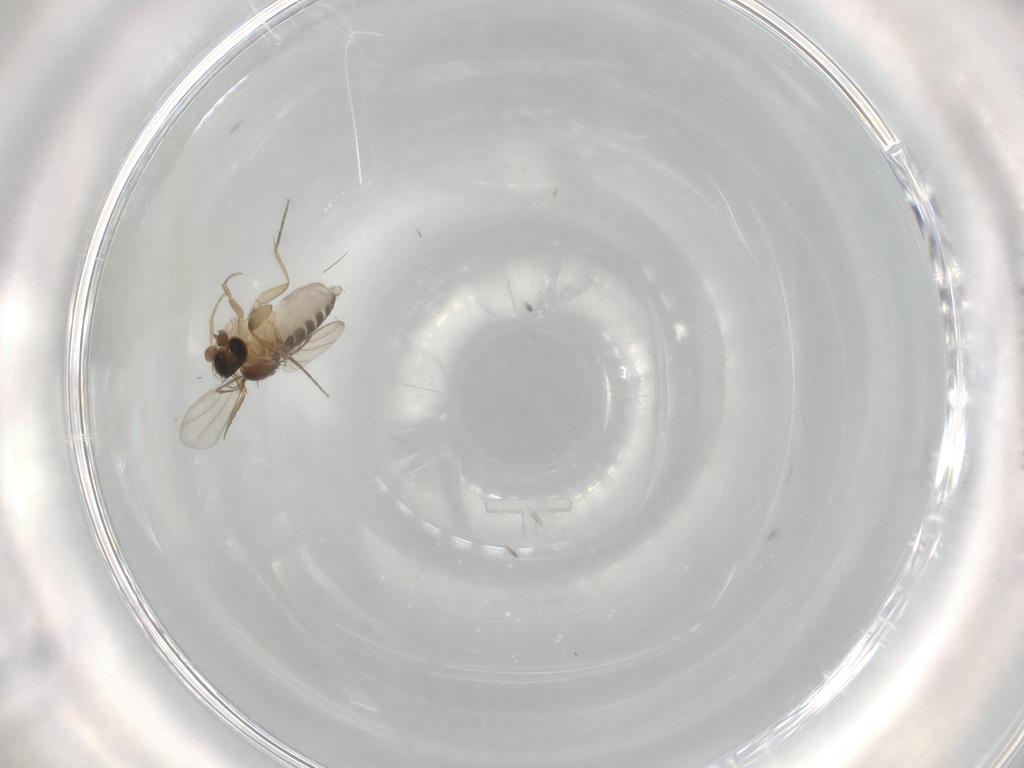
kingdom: Animalia
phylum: Arthropoda
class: Insecta
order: Diptera
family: Phoridae
